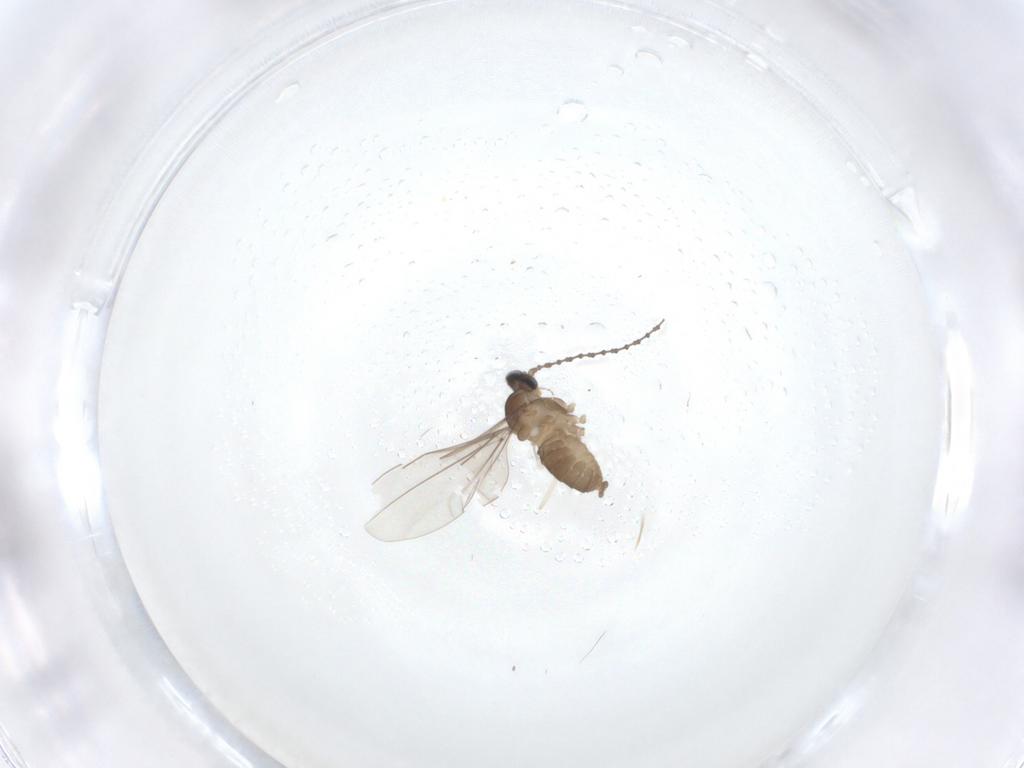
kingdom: Animalia
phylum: Arthropoda
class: Insecta
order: Diptera
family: Cecidomyiidae
